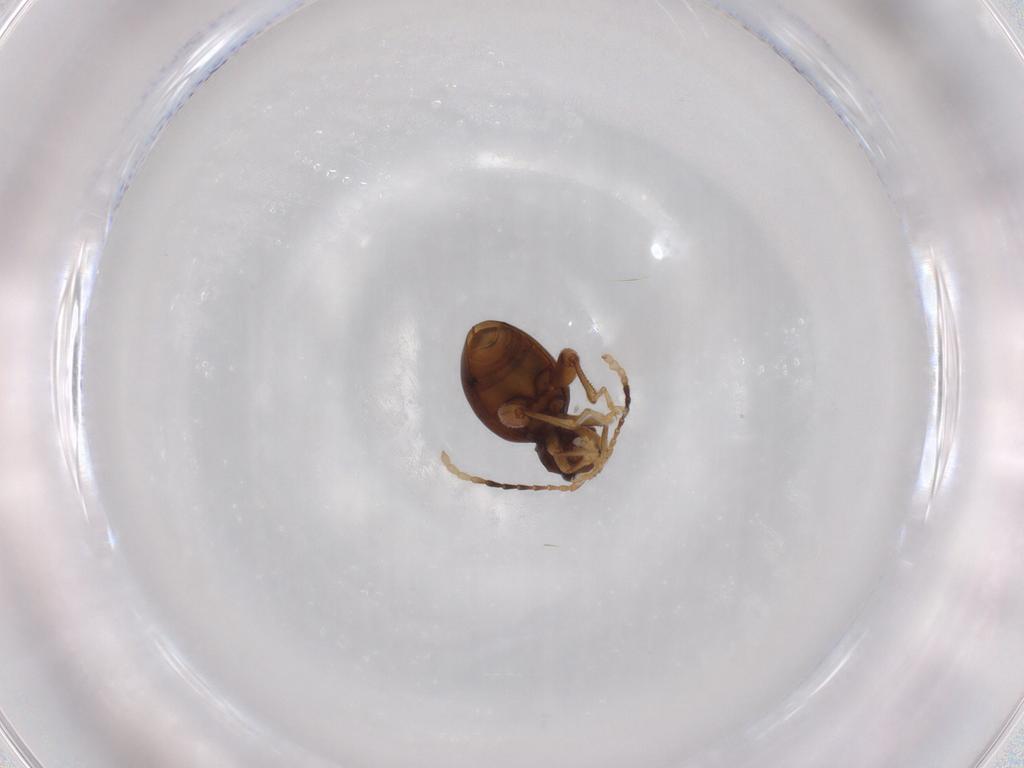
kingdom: Animalia
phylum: Arthropoda
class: Insecta
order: Coleoptera
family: Chrysomelidae
